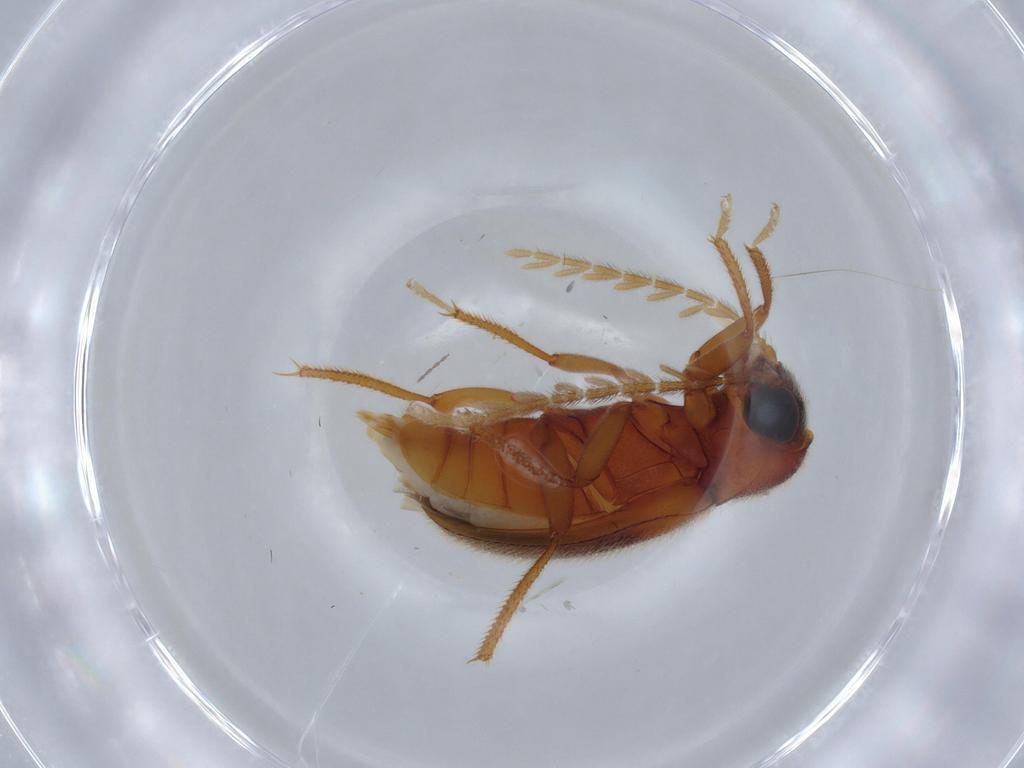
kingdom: Animalia
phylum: Arthropoda
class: Insecta
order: Coleoptera
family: Ptilodactylidae
